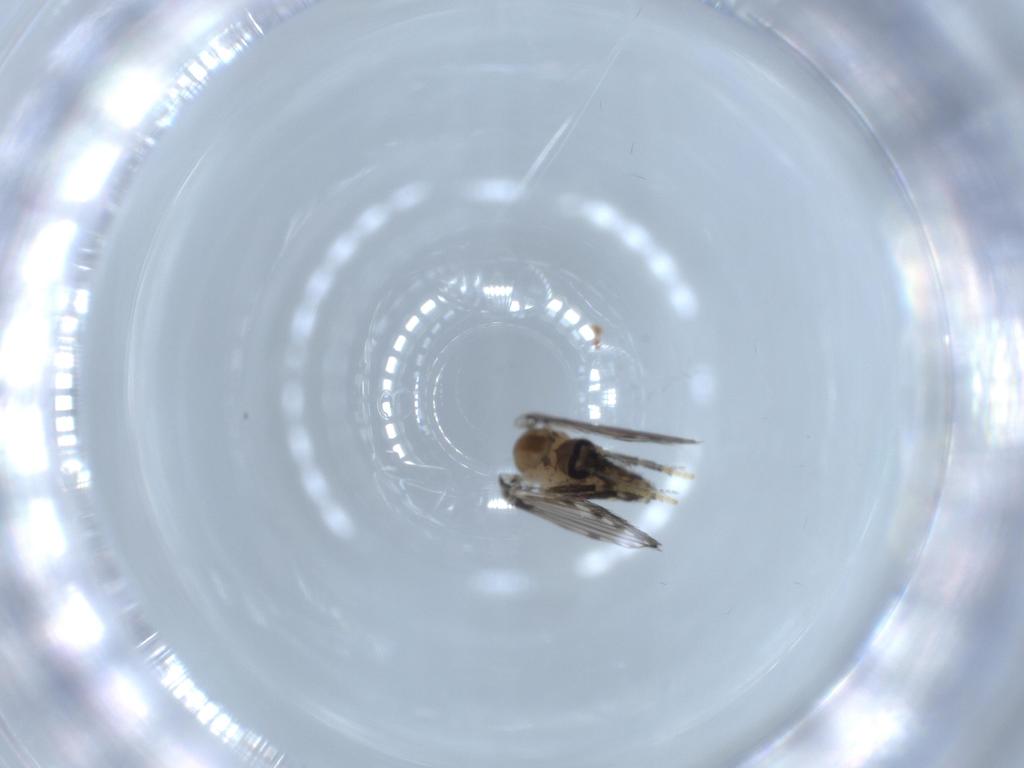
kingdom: Animalia
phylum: Arthropoda
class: Insecta
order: Diptera
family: Psychodidae
